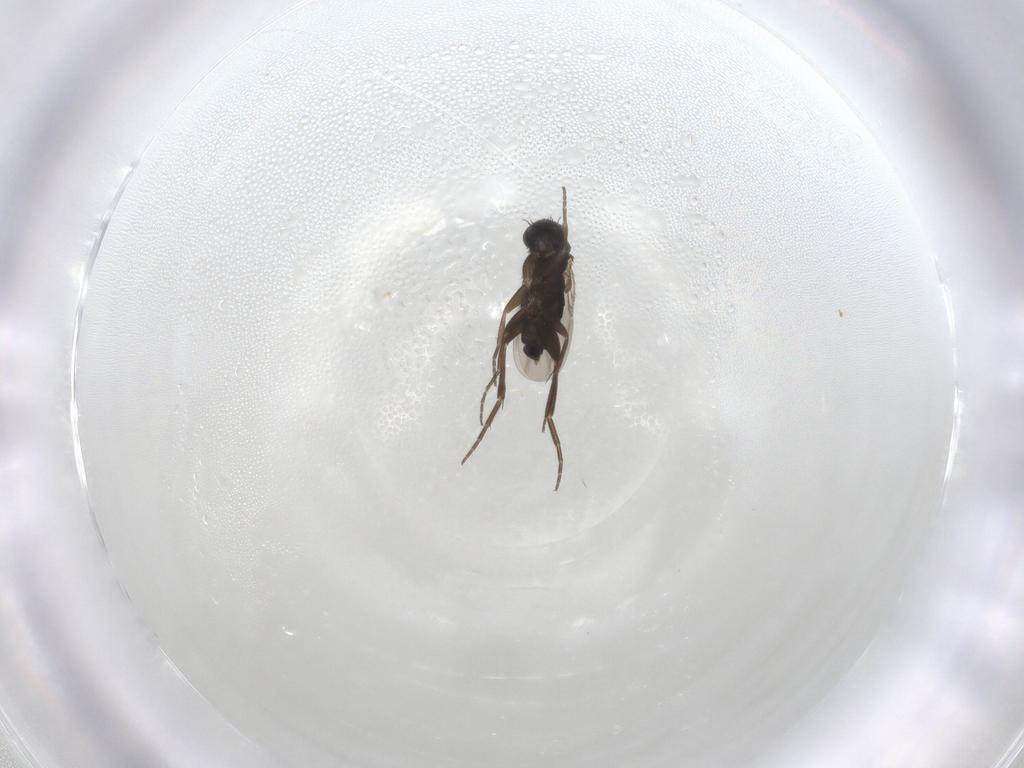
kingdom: Animalia
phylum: Arthropoda
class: Insecta
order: Diptera
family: Phoridae
